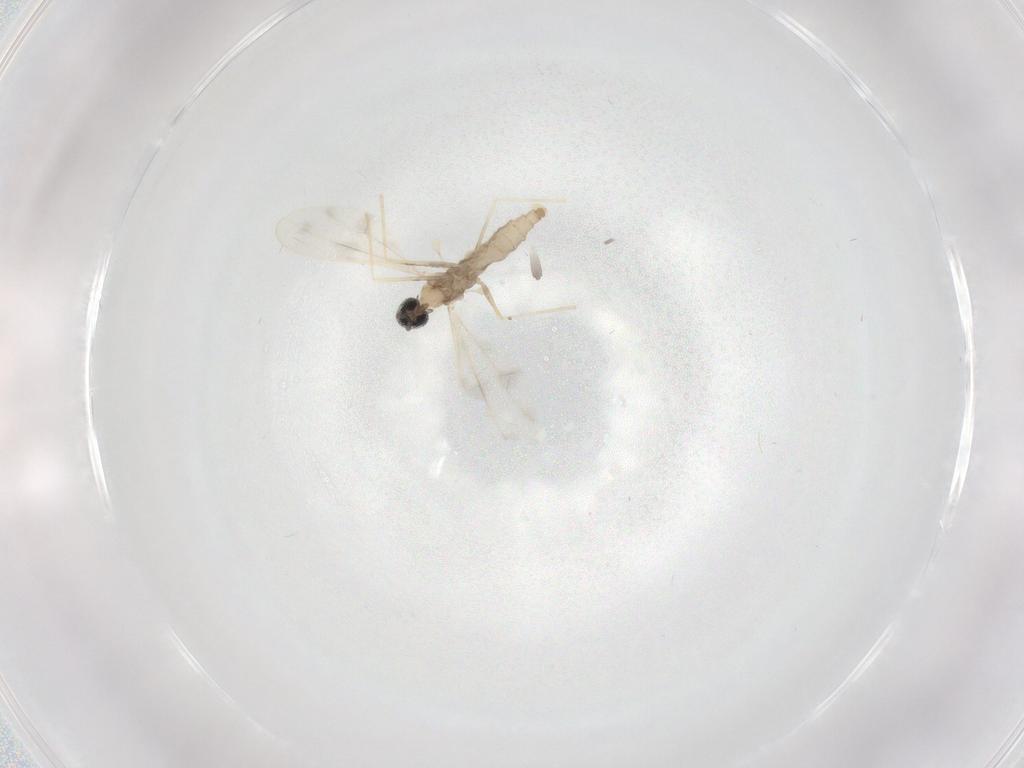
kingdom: Animalia
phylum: Arthropoda
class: Insecta
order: Diptera
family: Cecidomyiidae
